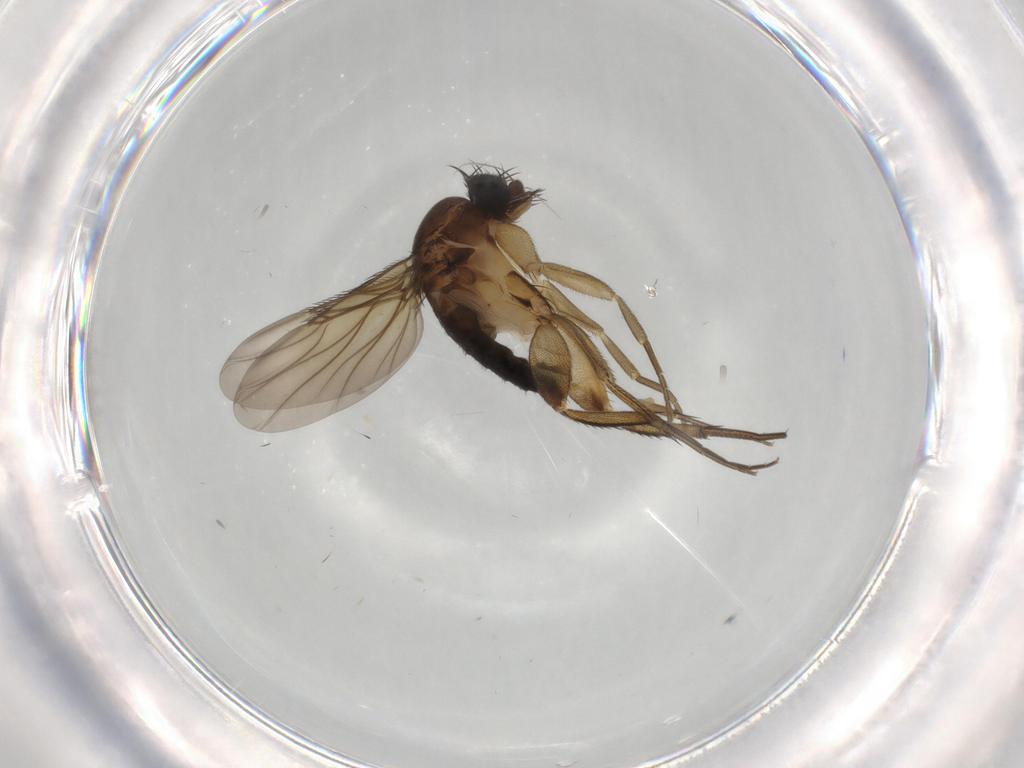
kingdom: Animalia
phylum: Arthropoda
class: Insecta
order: Diptera
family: Phoridae
